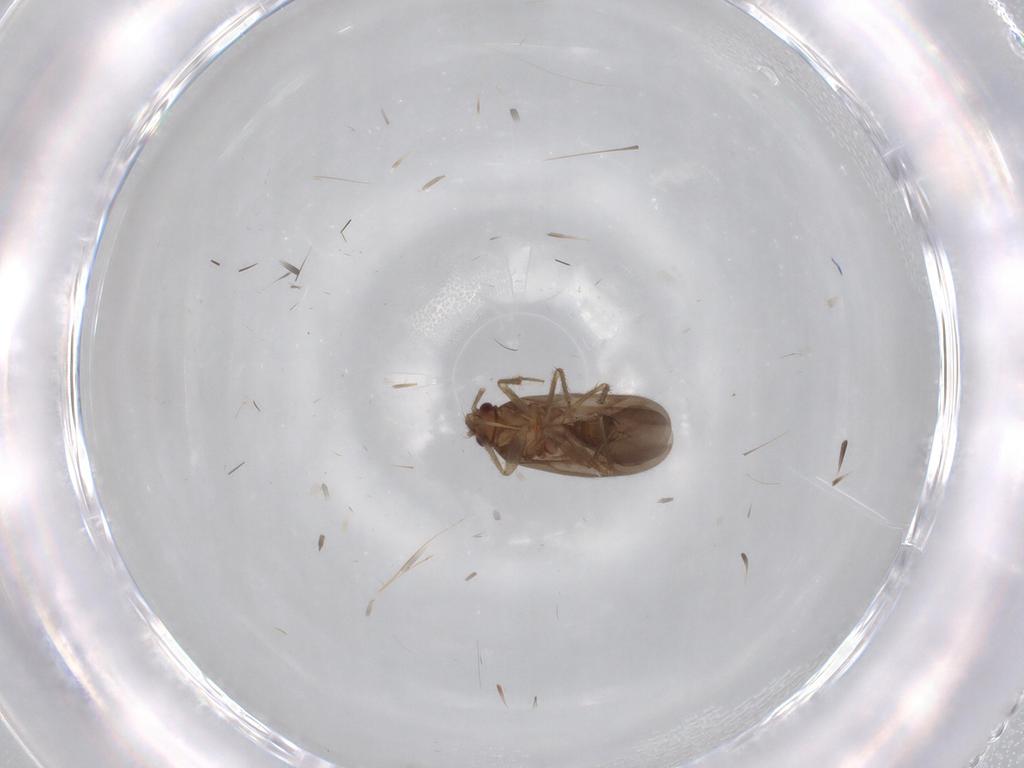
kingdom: Animalia
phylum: Arthropoda
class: Insecta
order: Hemiptera
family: Ceratocombidae
